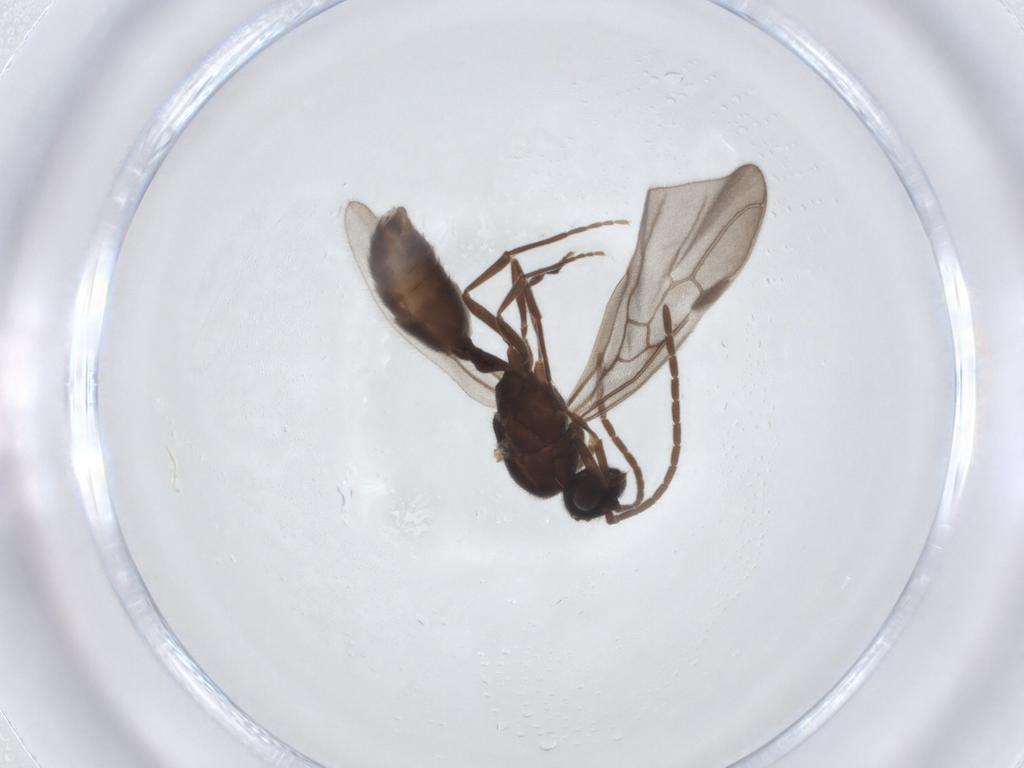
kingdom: Animalia
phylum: Arthropoda
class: Insecta
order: Hymenoptera
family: Formicidae
